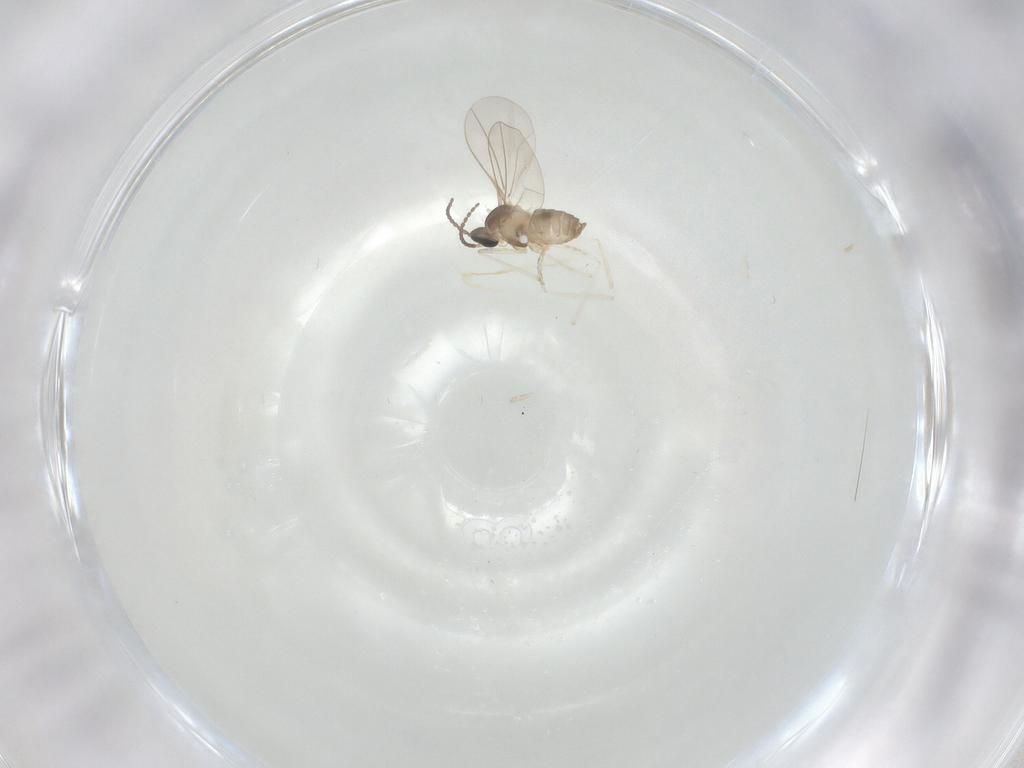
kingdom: Animalia
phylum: Arthropoda
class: Insecta
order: Diptera
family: Cecidomyiidae
